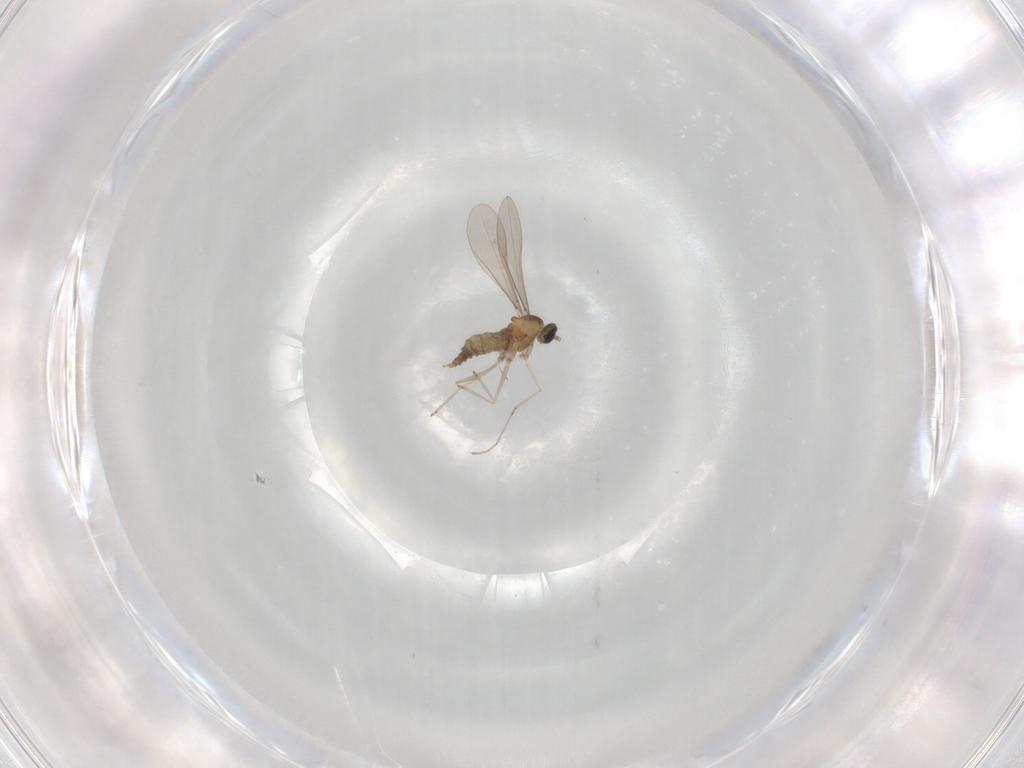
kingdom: Animalia
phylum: Arthropoda
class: Insecta
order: Diptera
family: Cecidomyiidae
